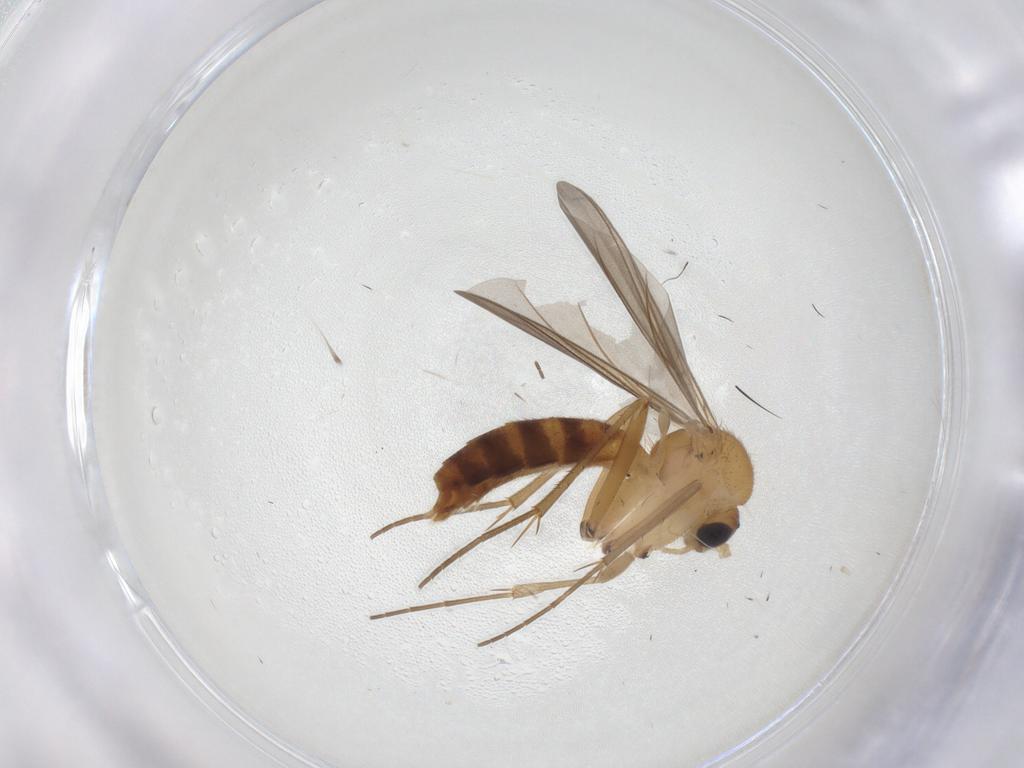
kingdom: Animalia
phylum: Arthropoda
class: Insecta
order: Diptera
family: Mycetophilidae
